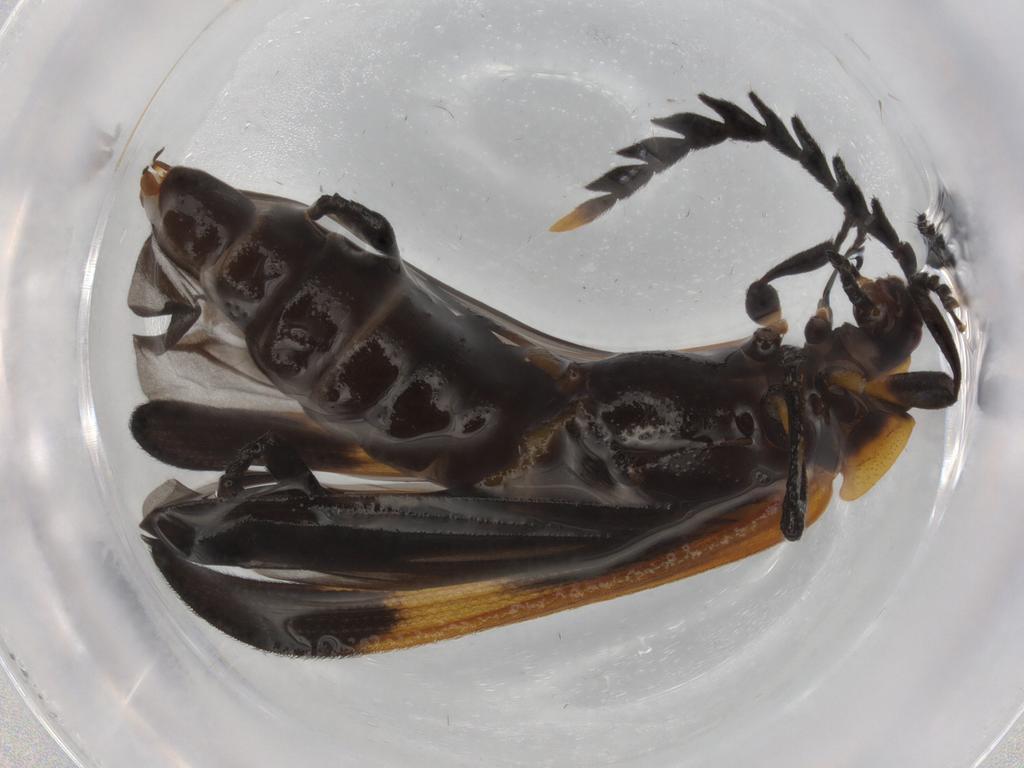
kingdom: Animalia
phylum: Arthropoda
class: Insecta
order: Coleoptera
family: Lycidae
